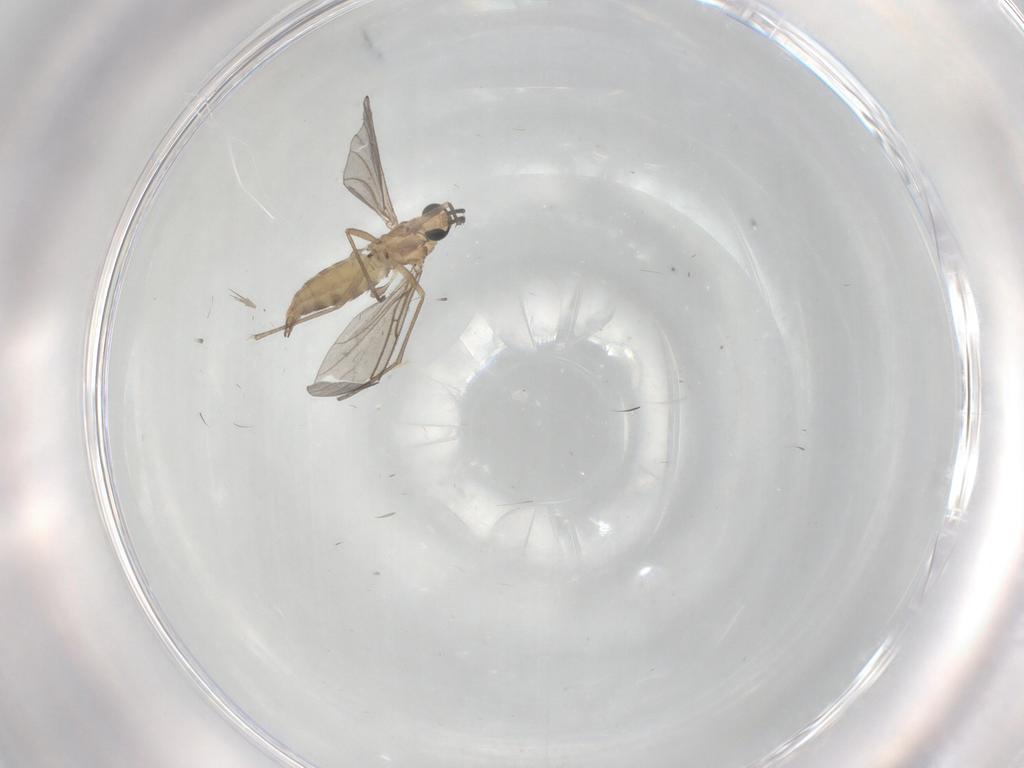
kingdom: Animalia
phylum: Arthropoda
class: Insecta
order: Diptera
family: Sciaridae
